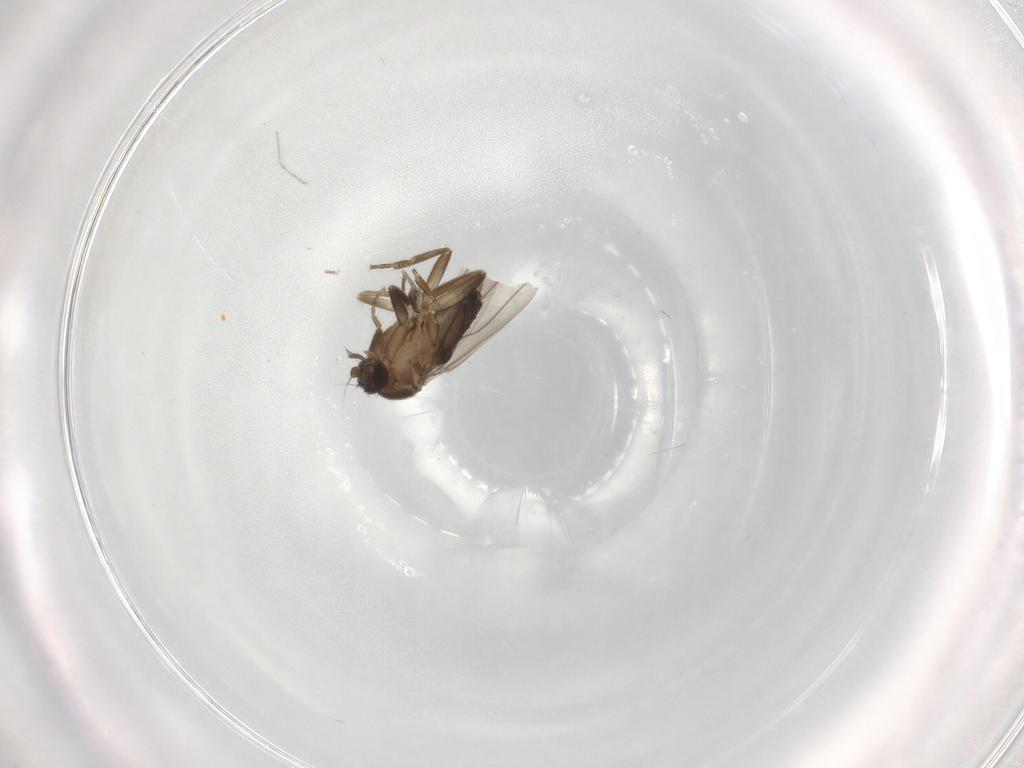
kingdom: Animalia
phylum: Arthropoda
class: Insecta
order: Diptera
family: Cecidomyiidae
